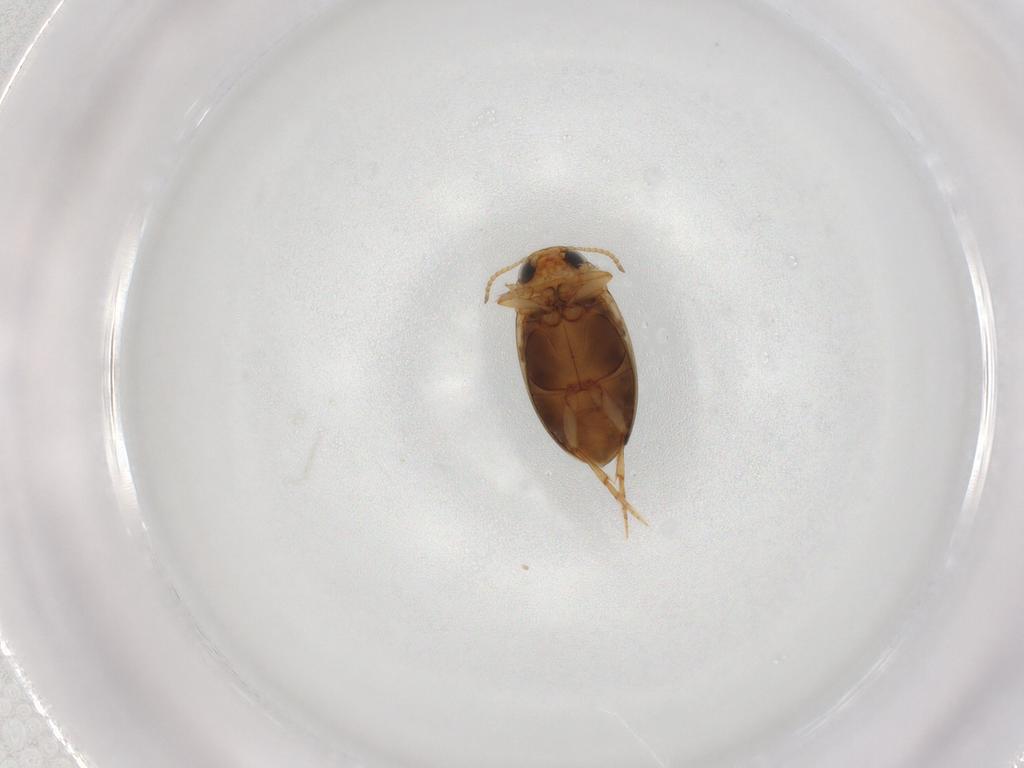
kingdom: Animalia
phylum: Arthropoda
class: Insecta
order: Coleoptera
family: Dytiscidae
